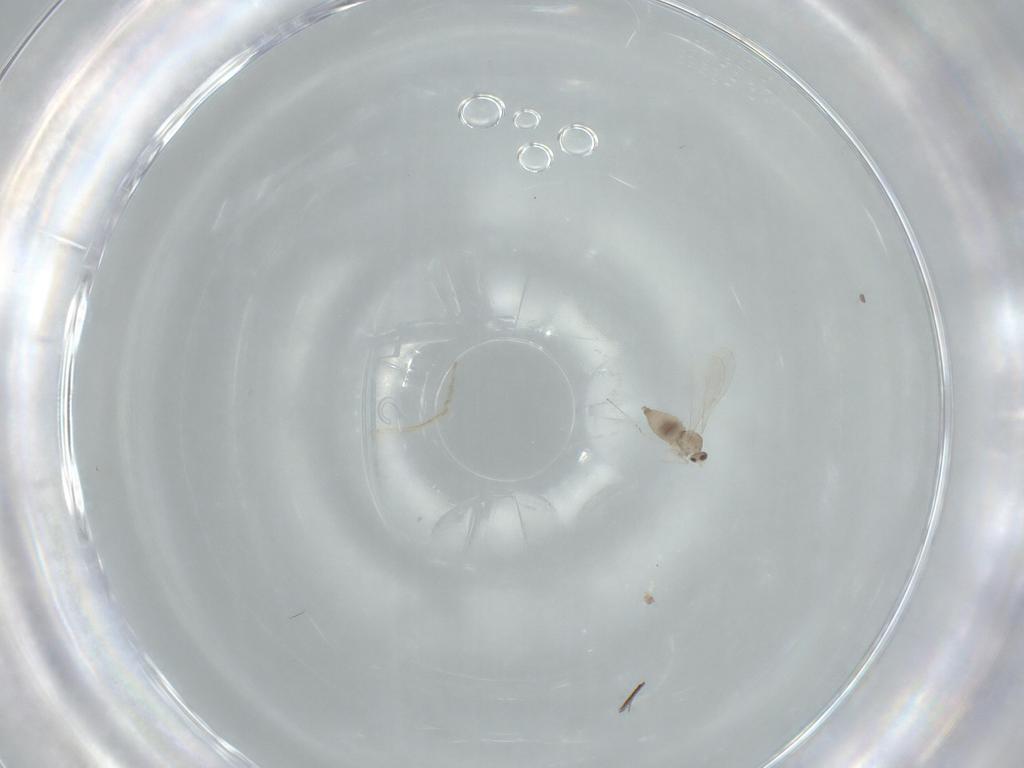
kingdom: Animalia
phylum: Arthropoda
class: Insecta
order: Diptera
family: Cecidomyiidae
